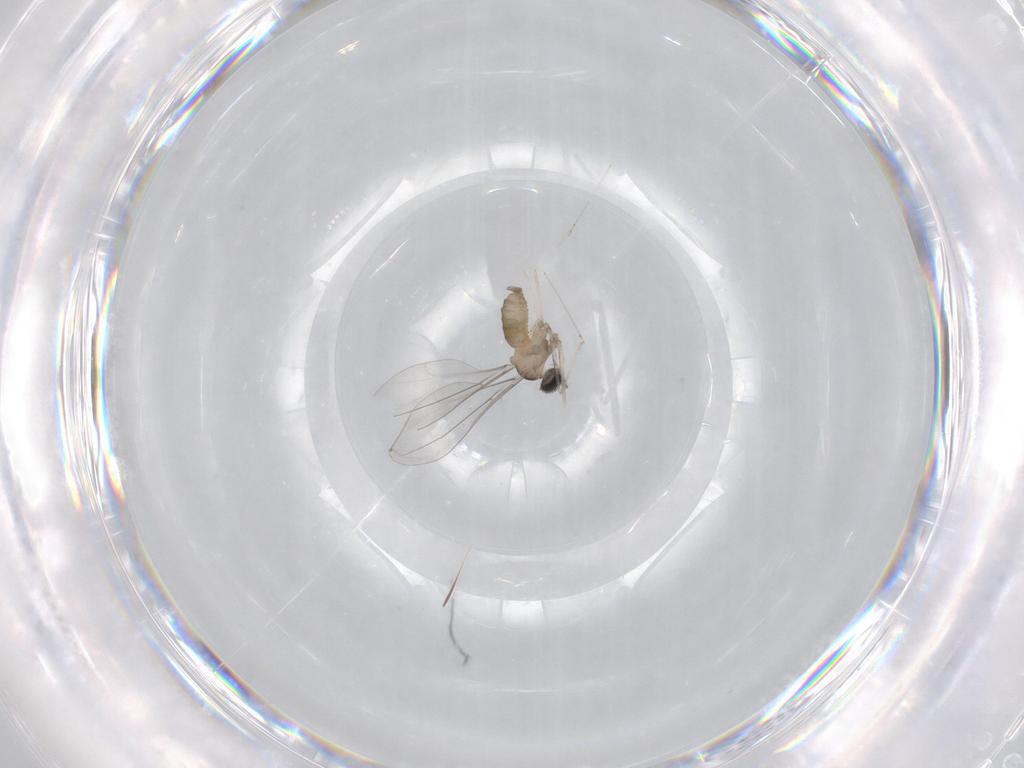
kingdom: Animalia
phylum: Arthropoda
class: Insecta
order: Diptera
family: Cecidomyiidae
